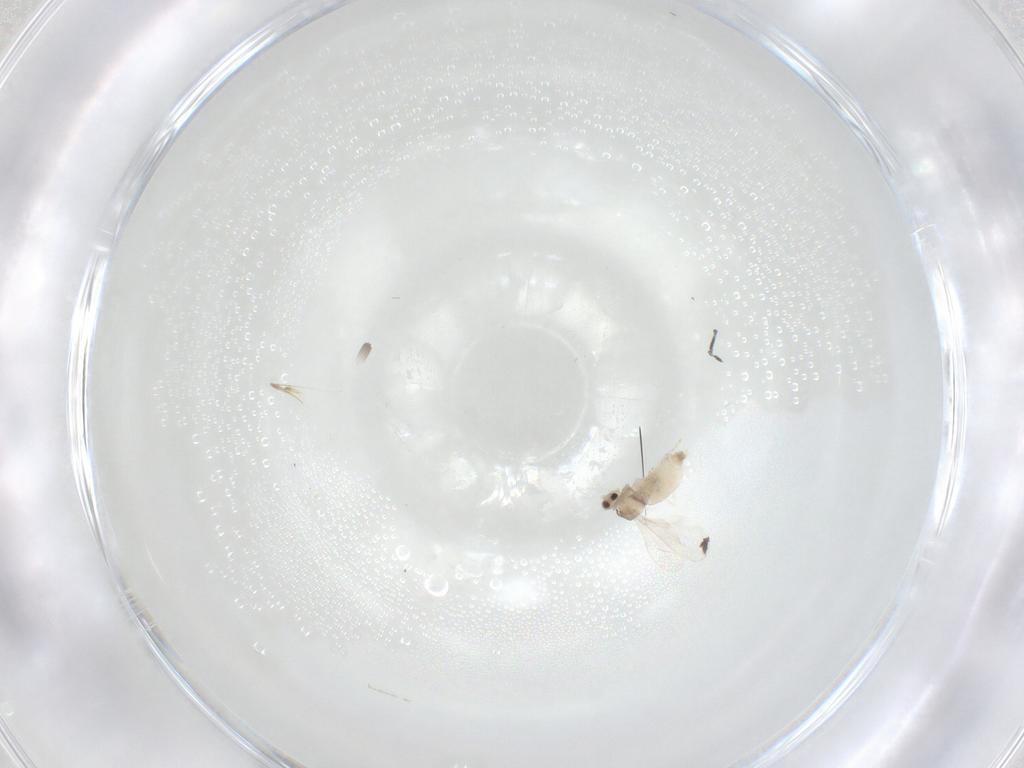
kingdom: Animalia
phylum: Arthropoda
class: Insecta
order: Diptera
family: Cecidomyiidae
